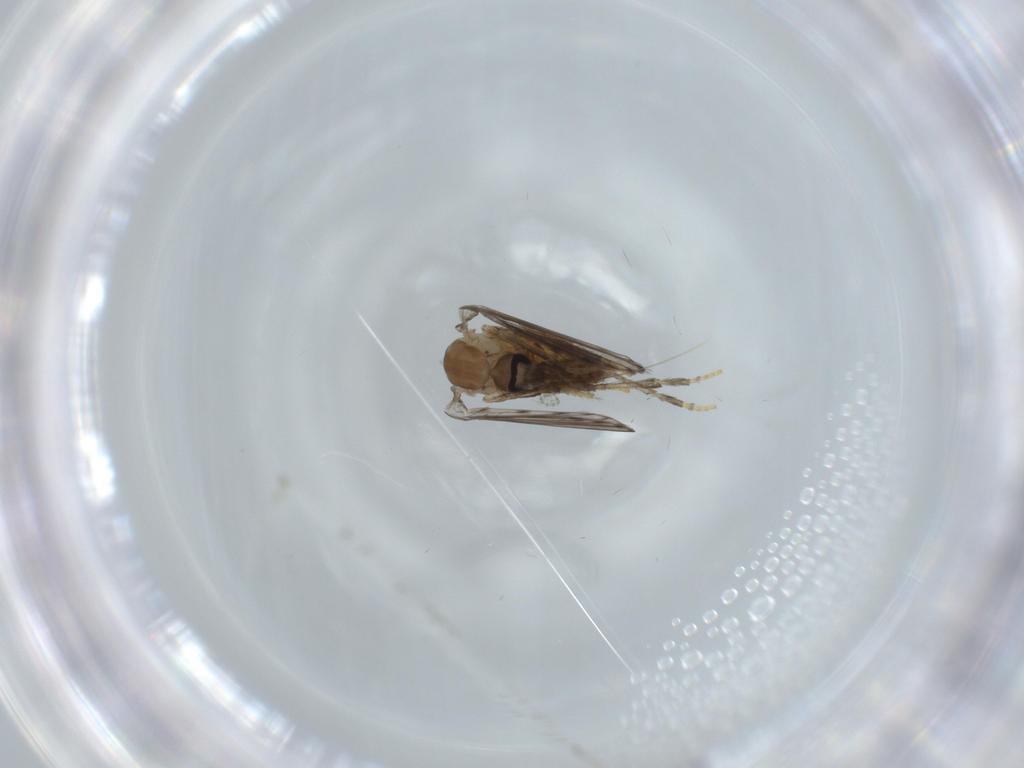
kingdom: Animalia
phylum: Arthropoda
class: Insecta
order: Diptera
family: Psychodidae
